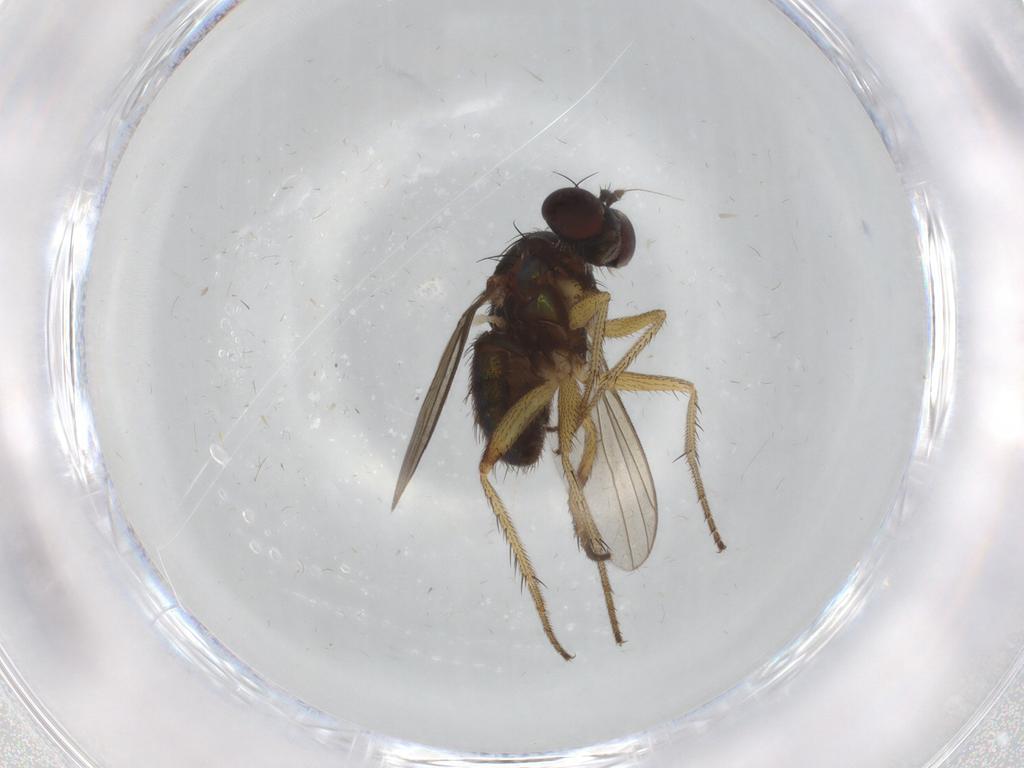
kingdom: Animalia
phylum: Arthropoda
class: Insecta
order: Diptera
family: Dolichopodidae
